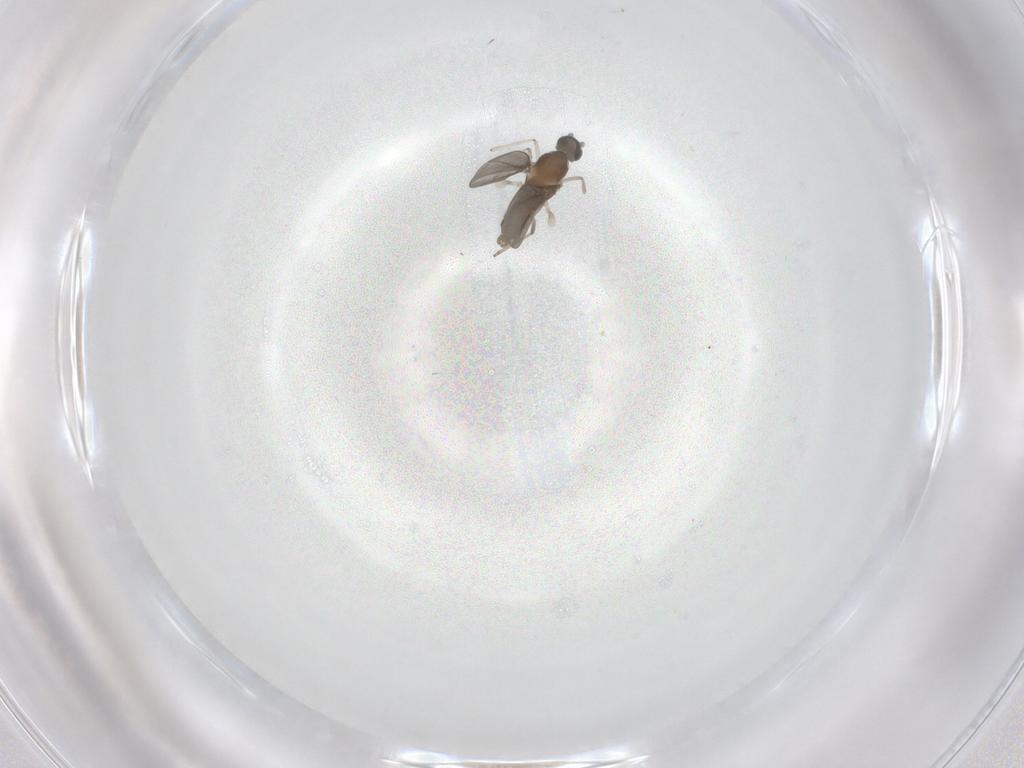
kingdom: Animalia
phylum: Arthropoda
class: Insecta
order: Diptera
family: Cecidomyiidae
